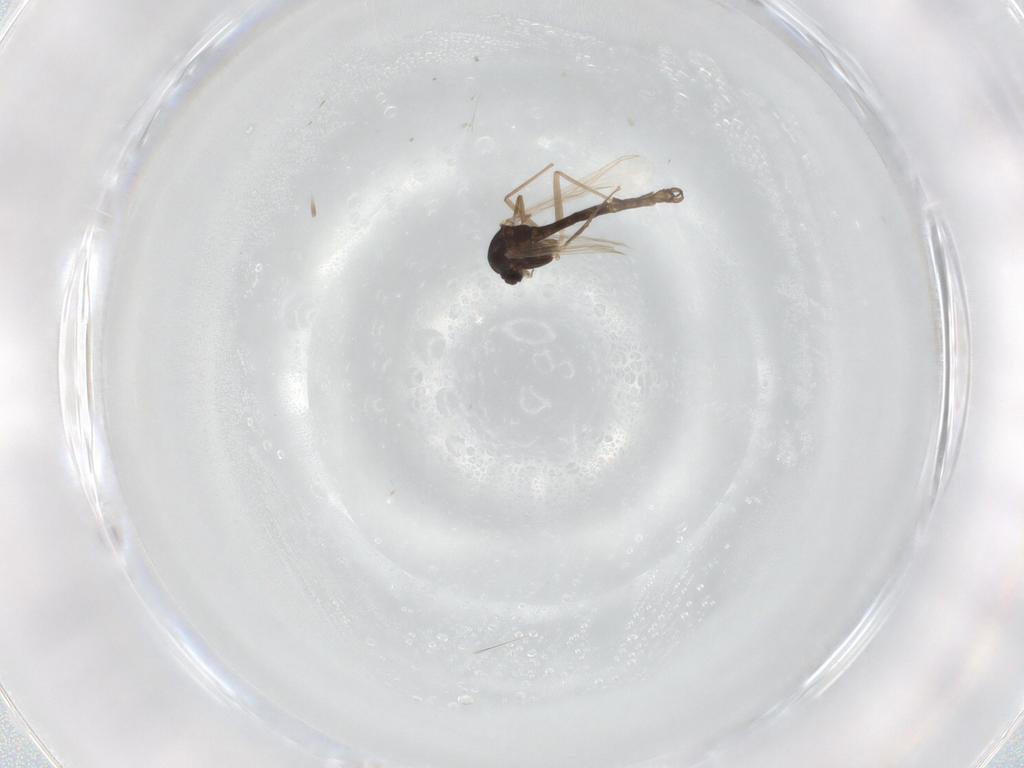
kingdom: Animalia
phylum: Arthropoda
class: Insecta
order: Diptera
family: Chironomidae
